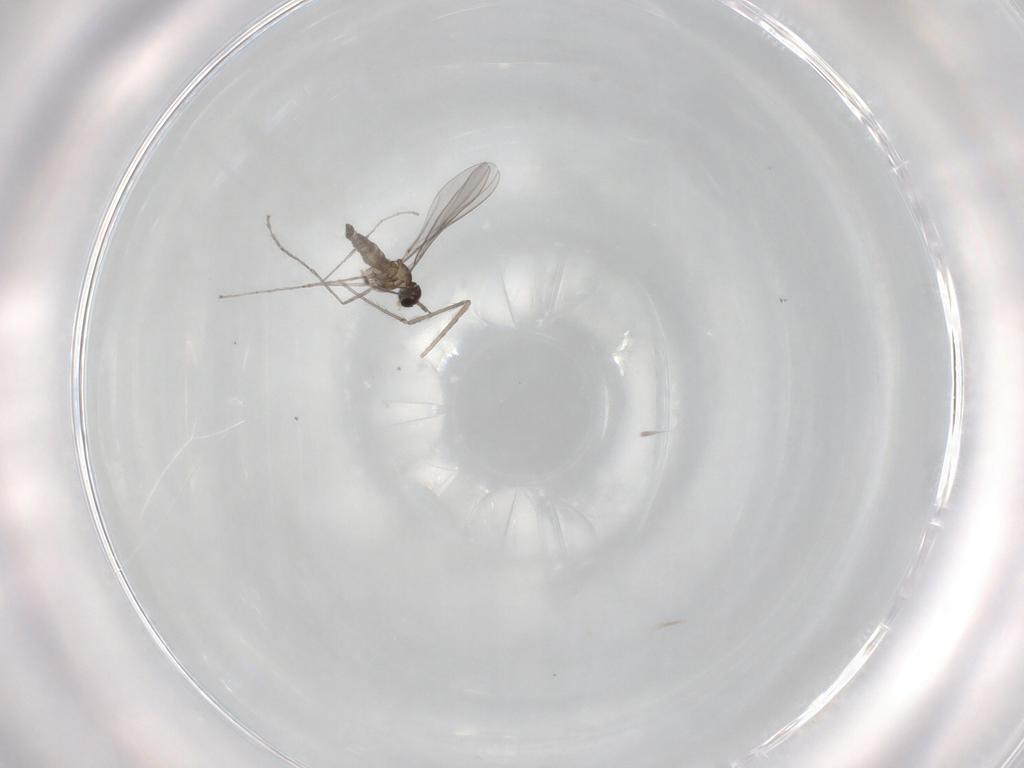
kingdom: Animalia
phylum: Arthropoda
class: Insecta
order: Diptera
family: Cecidomyiidae
